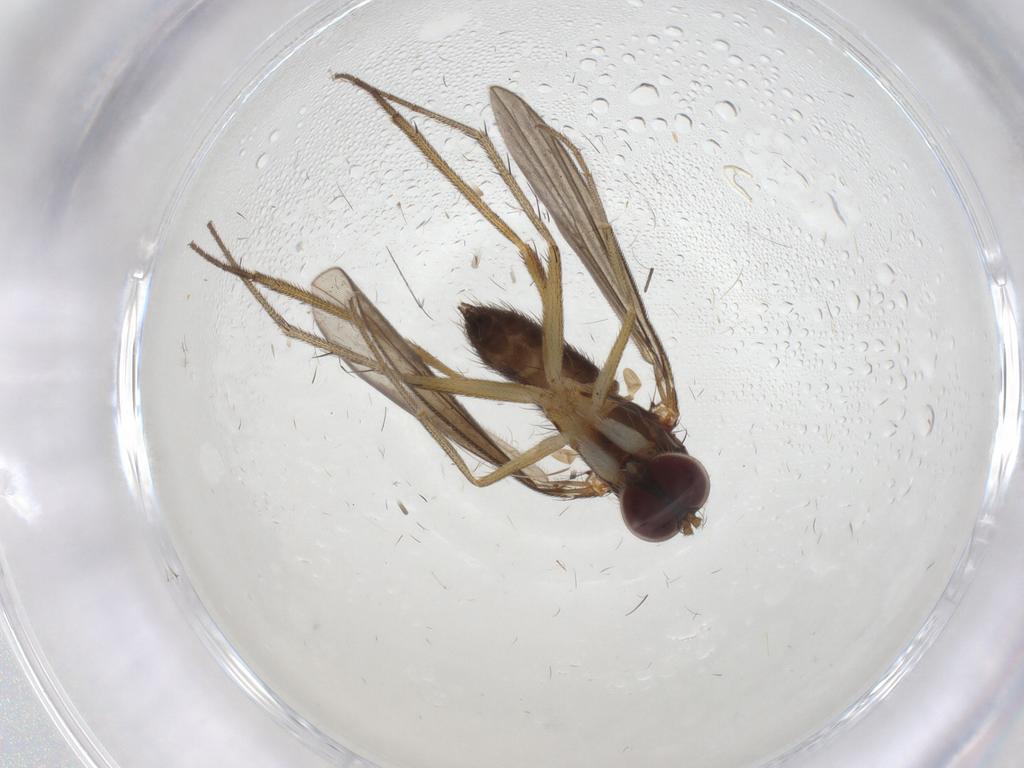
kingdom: Animalia
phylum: Arthropoda
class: Insecta
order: Diptera
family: Dolichopodidae
